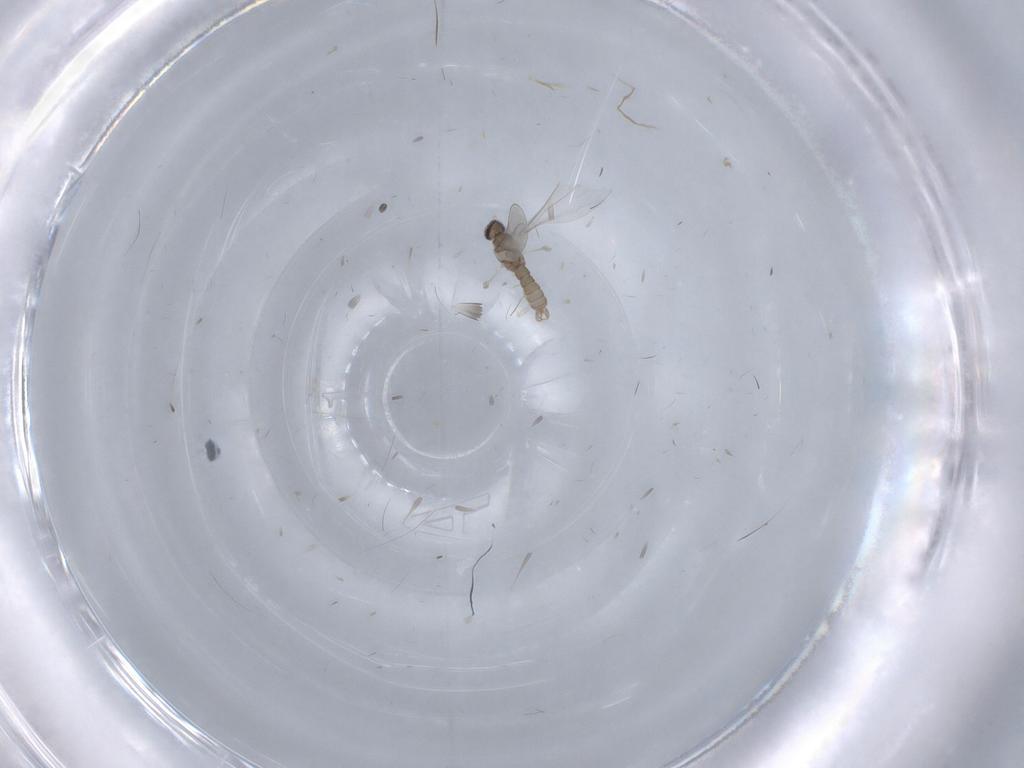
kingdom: Animalia
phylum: Arthropoda
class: Insecta
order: Diptera
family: Cecidomyiidae
